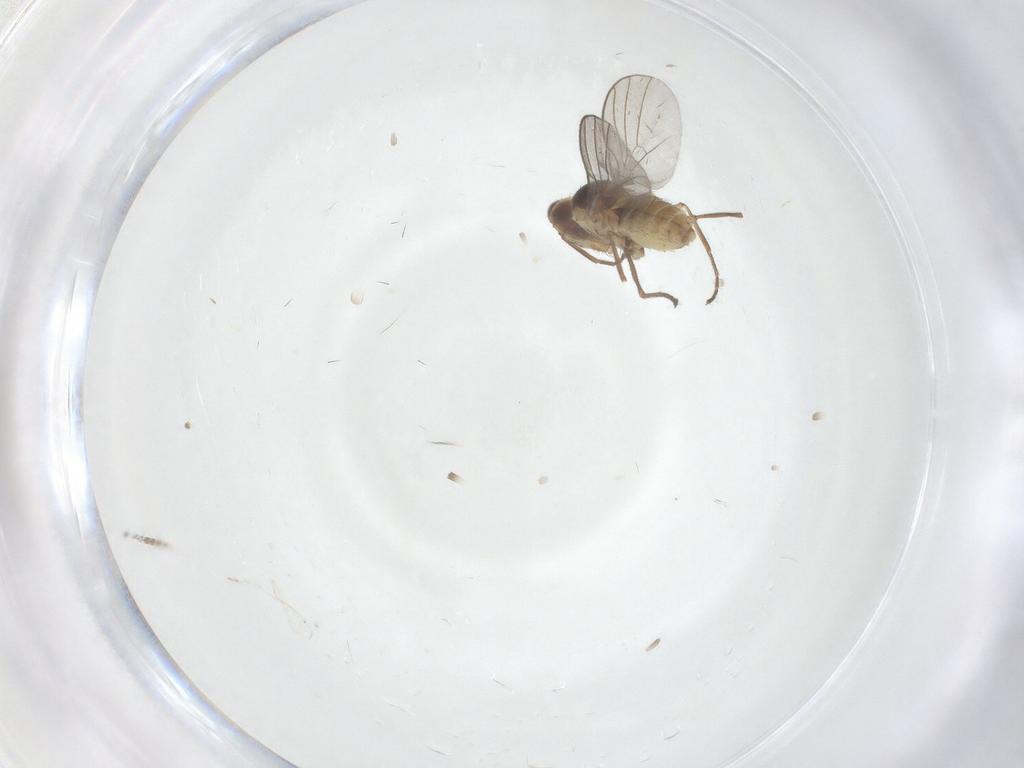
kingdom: Animalia
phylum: Arthropoda
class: Insecta
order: Diptera
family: Agromyzidae
